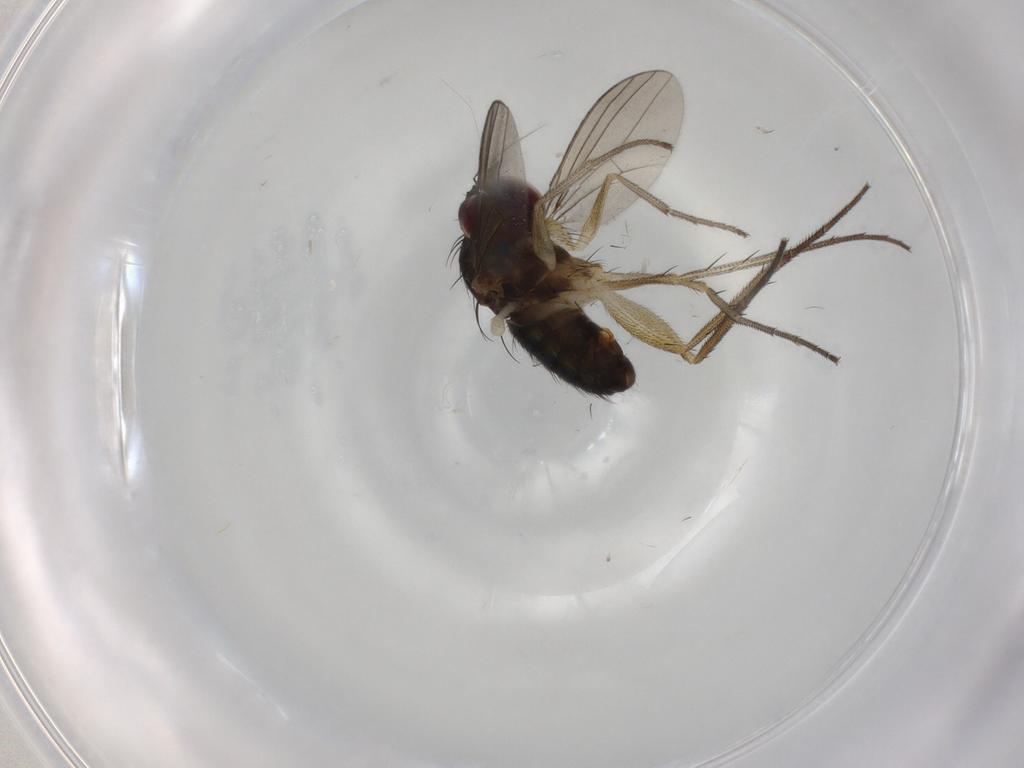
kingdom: Animalia
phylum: Arthropoda
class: Insecta
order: Diptera
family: Dolichopodidae
